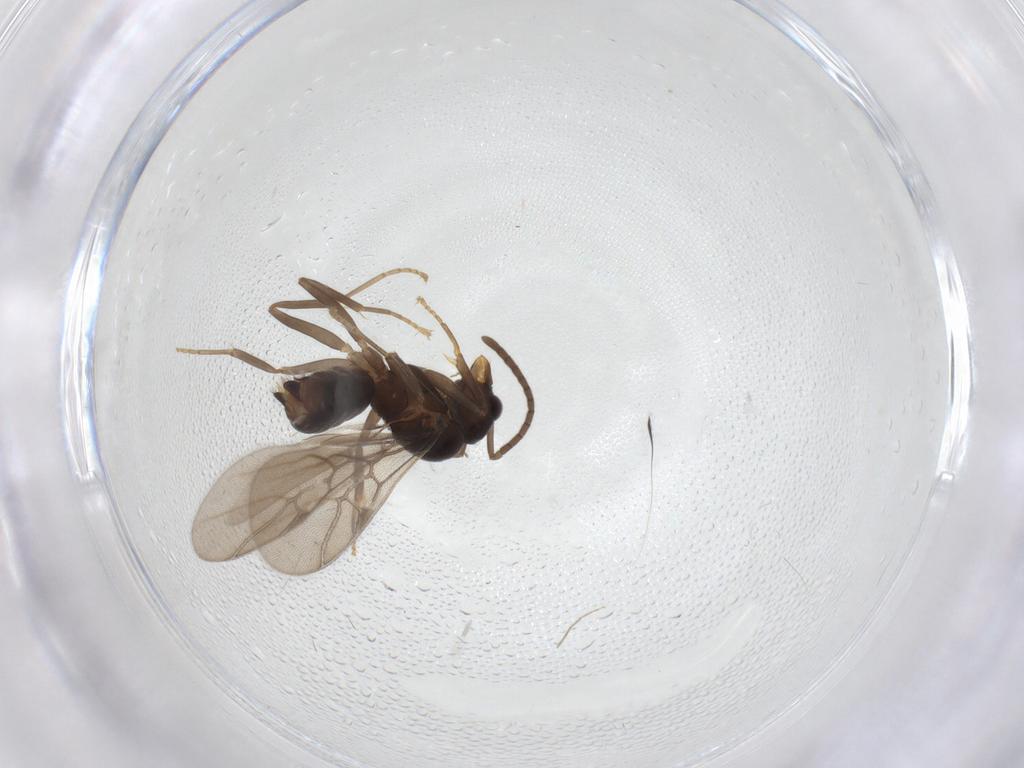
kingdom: Animalia
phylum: Arthropoda
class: Insecta
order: Hymenoptera
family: Formicidae
